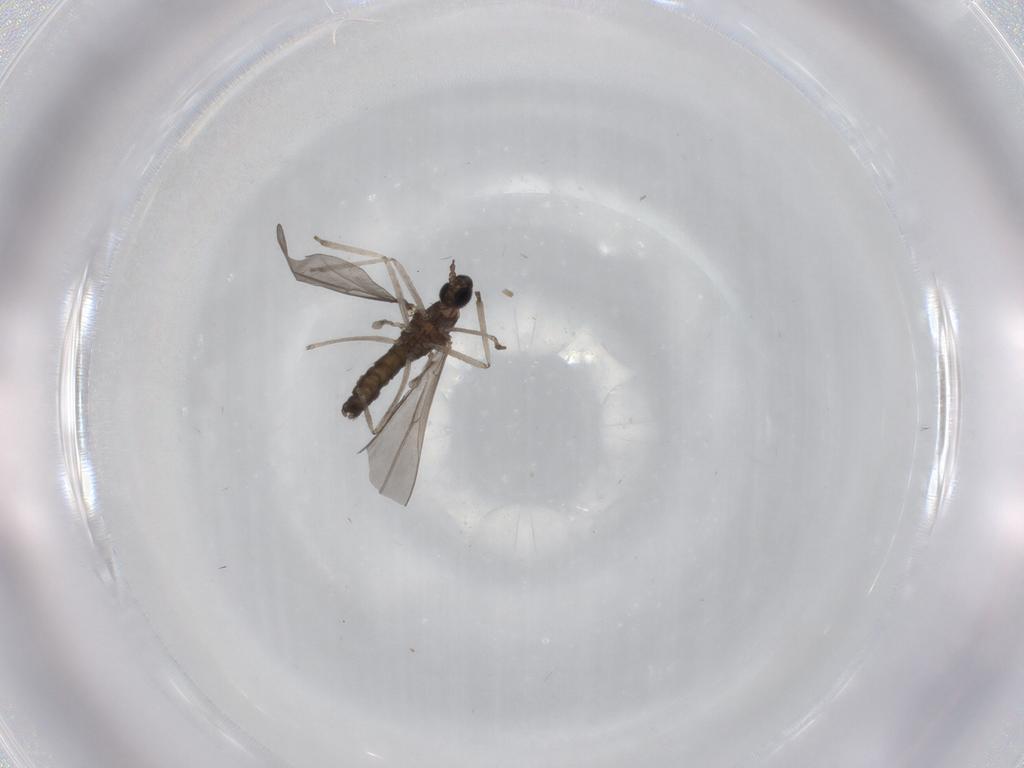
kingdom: Animalia
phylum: Arthropoda
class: Insecta
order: Diptera
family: Cecidomyiidae
